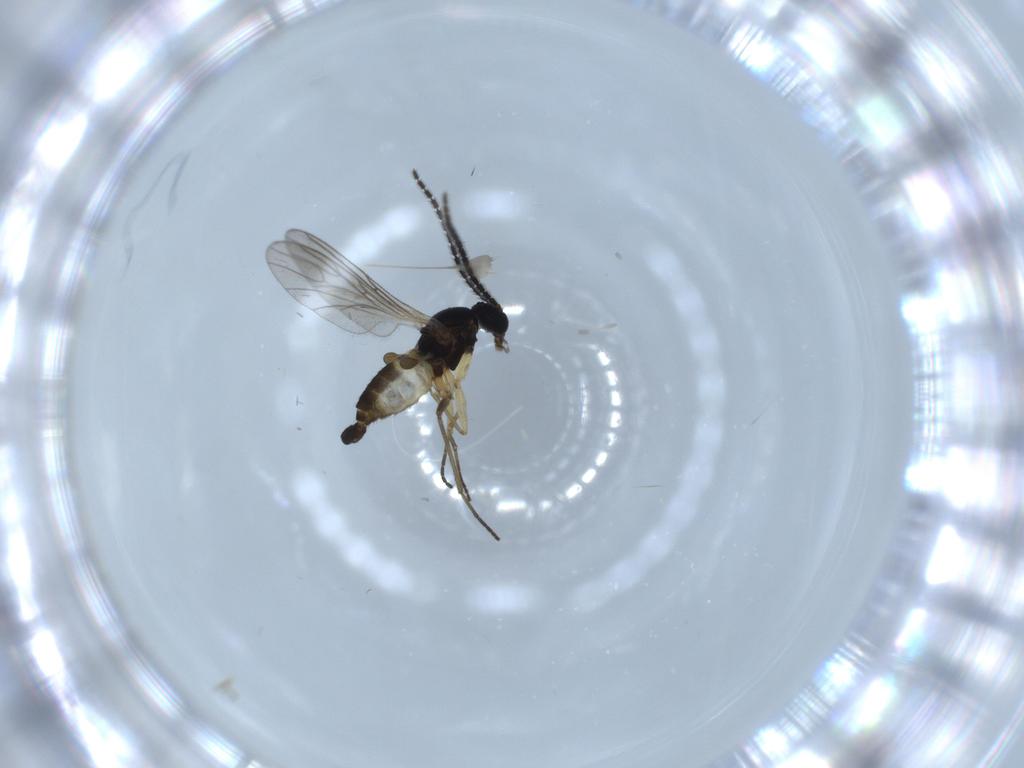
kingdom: Animalia
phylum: Arthropoda
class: Insecta
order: Diptera
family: Sciaridae
